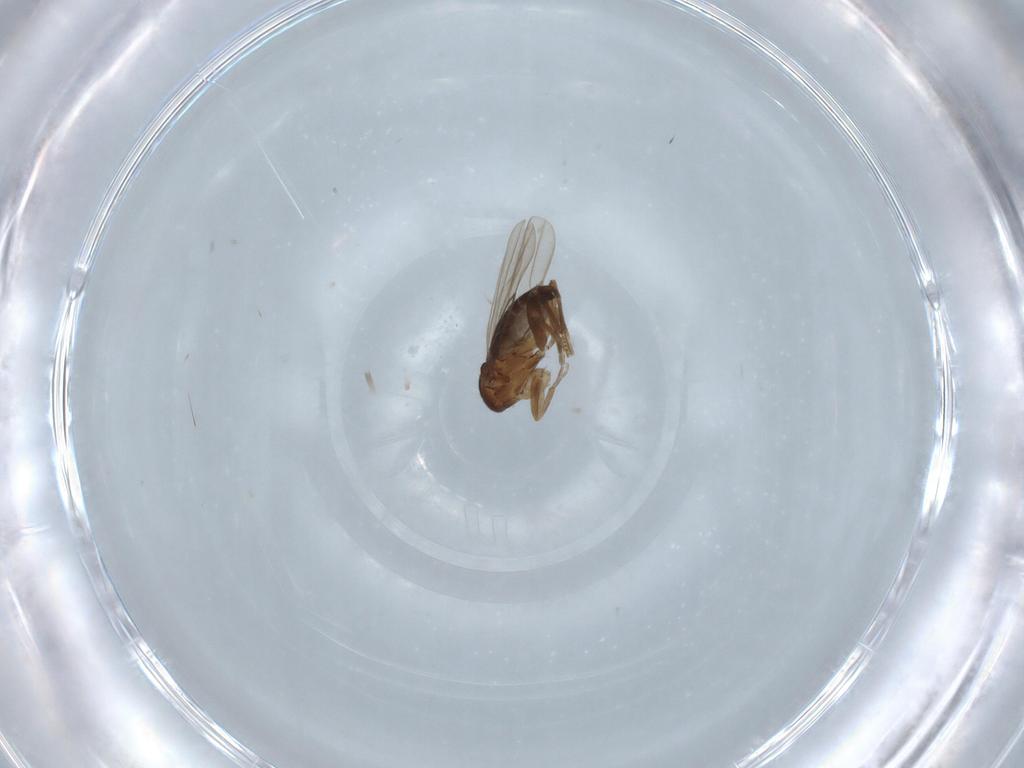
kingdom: Animalia
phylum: Arthropoda
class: Insecta
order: Diptera
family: Phoridae
